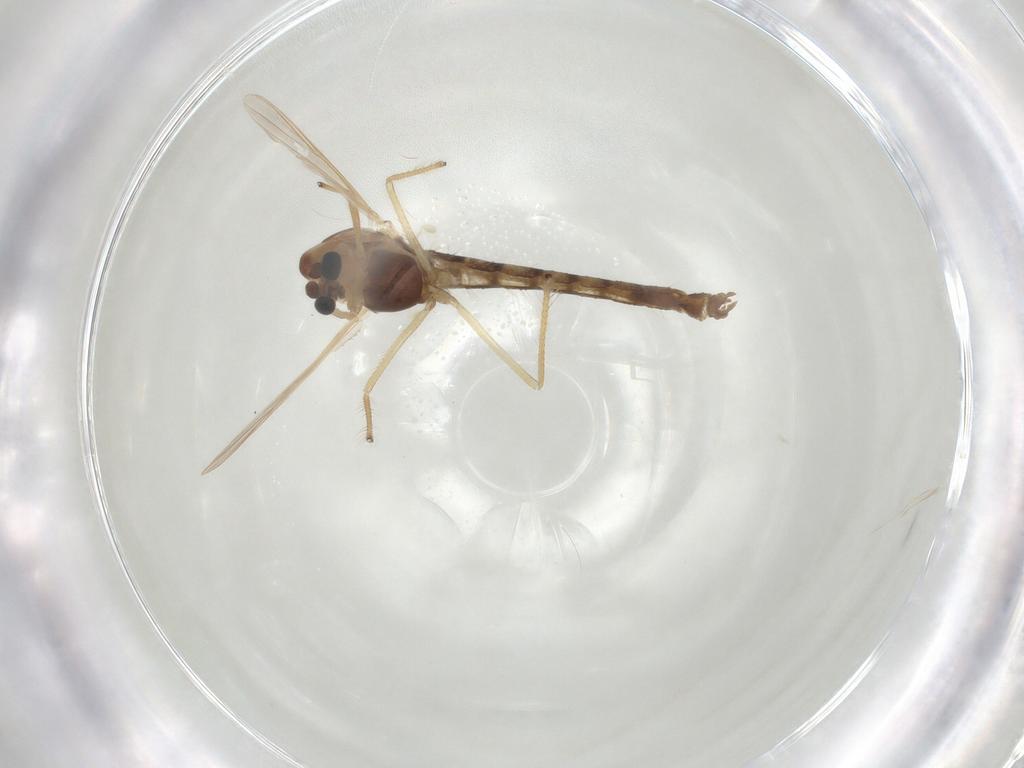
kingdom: Animalia
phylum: Arthropoda
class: Insecta
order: Diptera
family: Chironomidae
